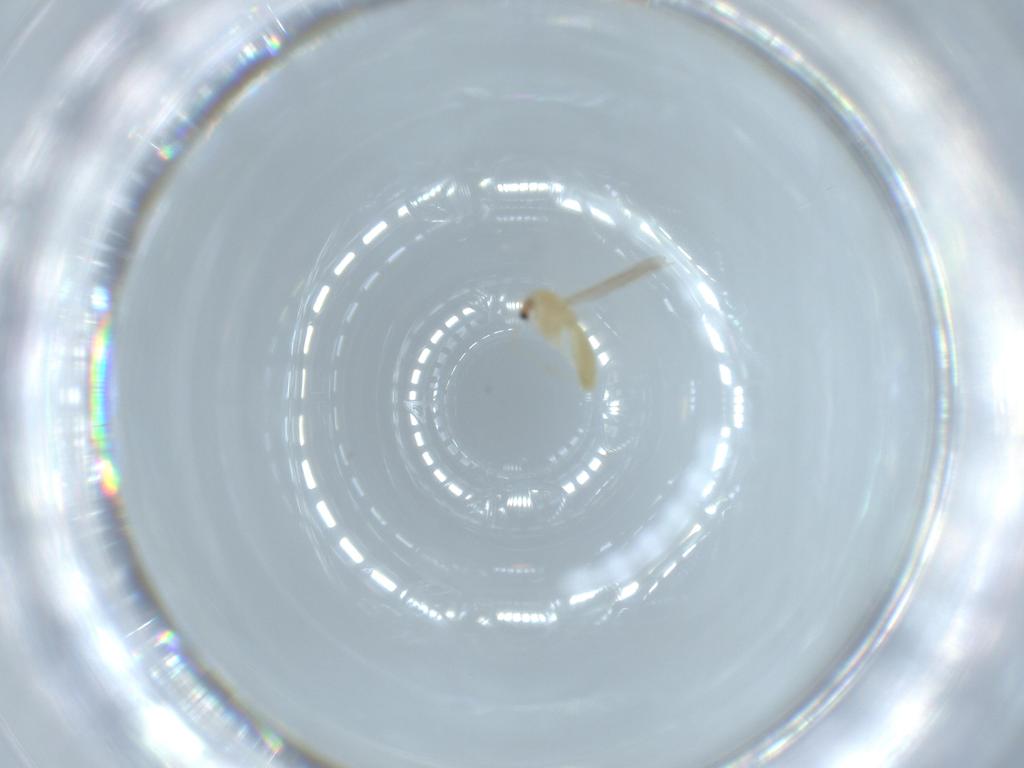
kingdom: Animalia
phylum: Arthropoda
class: Insecta
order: Diptera
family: Chironomidae
